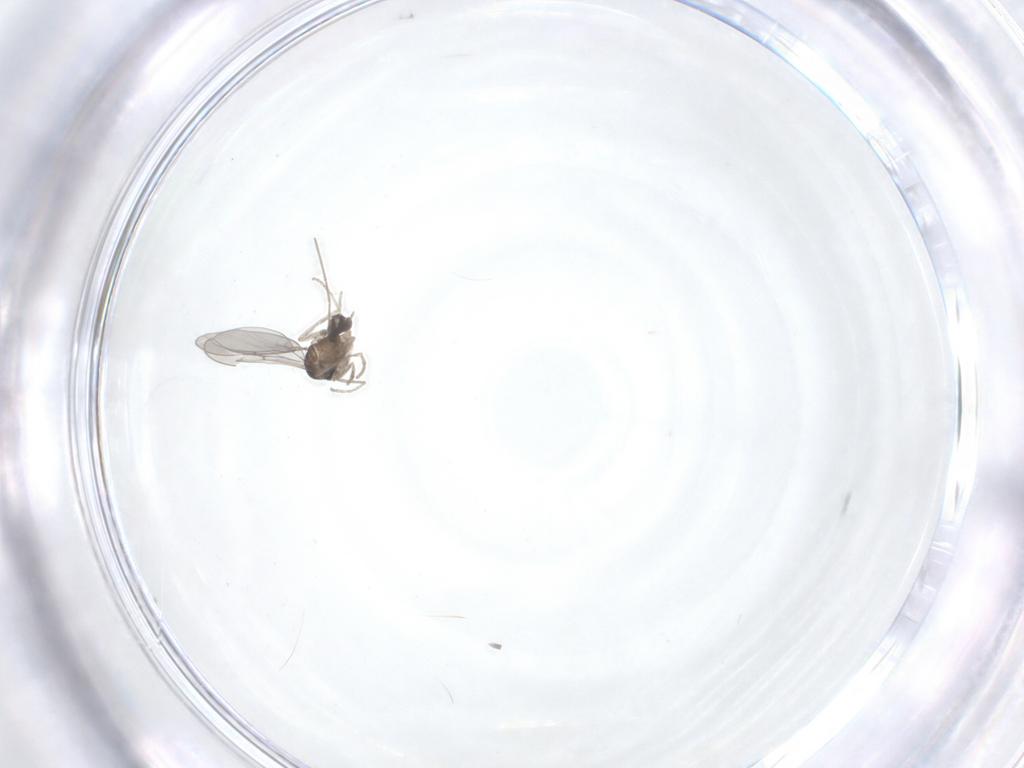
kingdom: Animalia
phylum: Arthropoda
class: Insecta
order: Diptera
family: Cecidomyiidae
